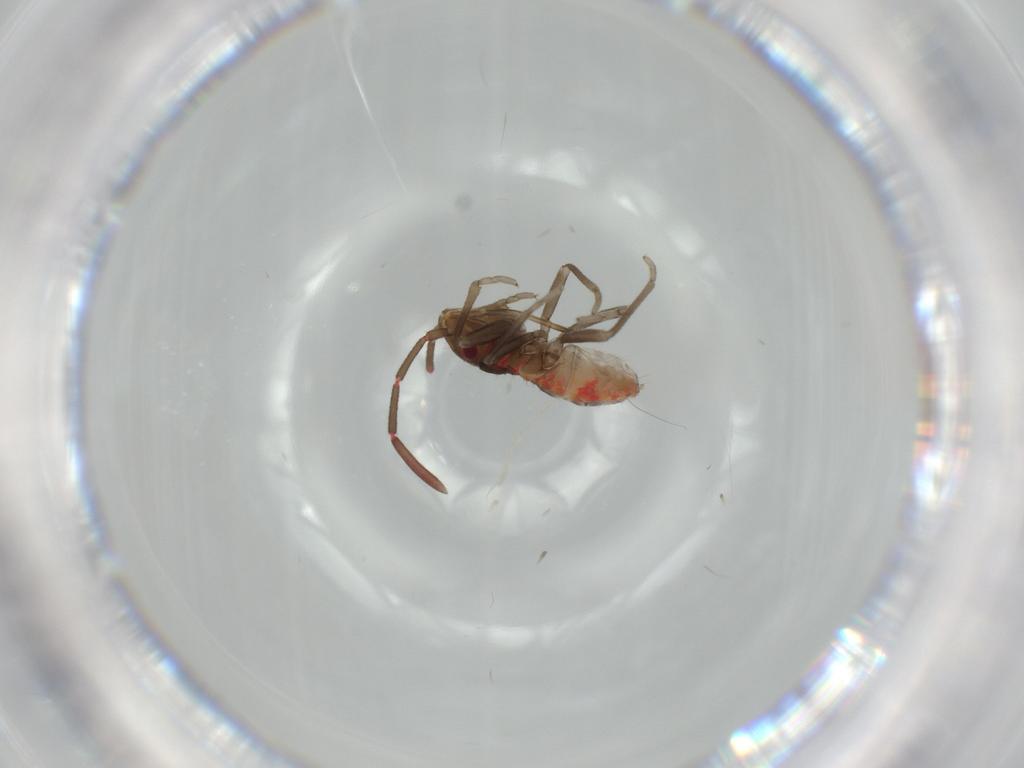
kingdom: Animalia
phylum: Arthropoda
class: Insecta
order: Hemiptera
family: Rhyparochromidae
